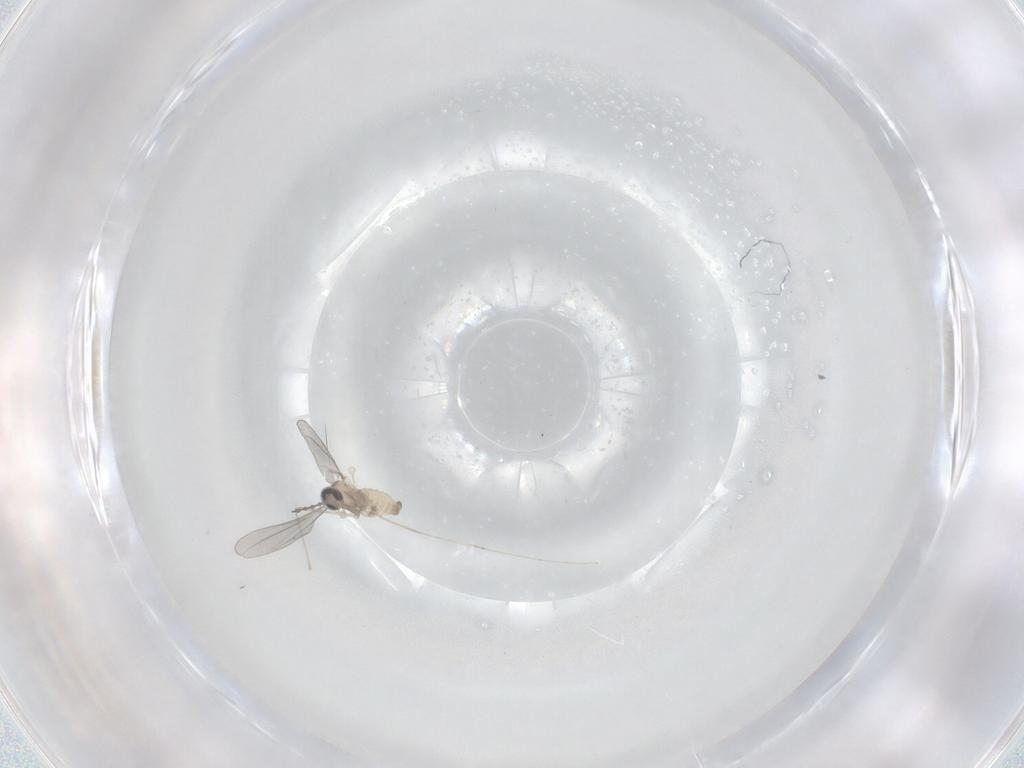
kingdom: Animalia
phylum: Arthropoda
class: Insecta
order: Diptera
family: Cecidomyiidae
